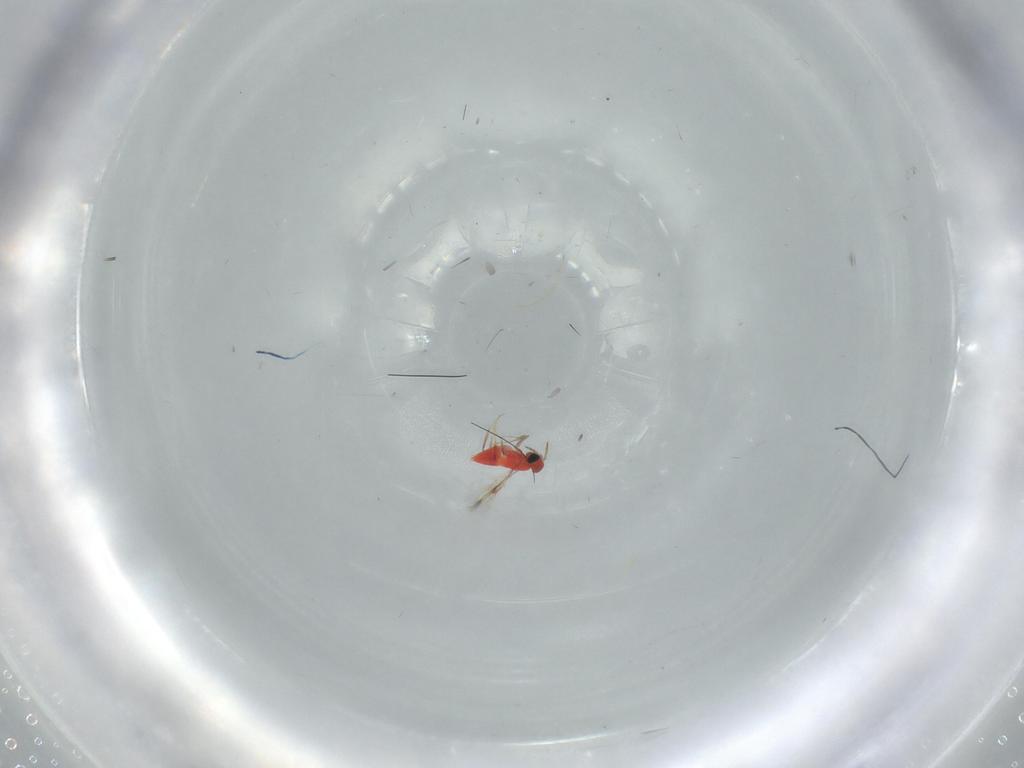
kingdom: Animalia
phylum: Arthropoda
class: Insecta
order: Hymenoptera
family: Trichogrammatidae
